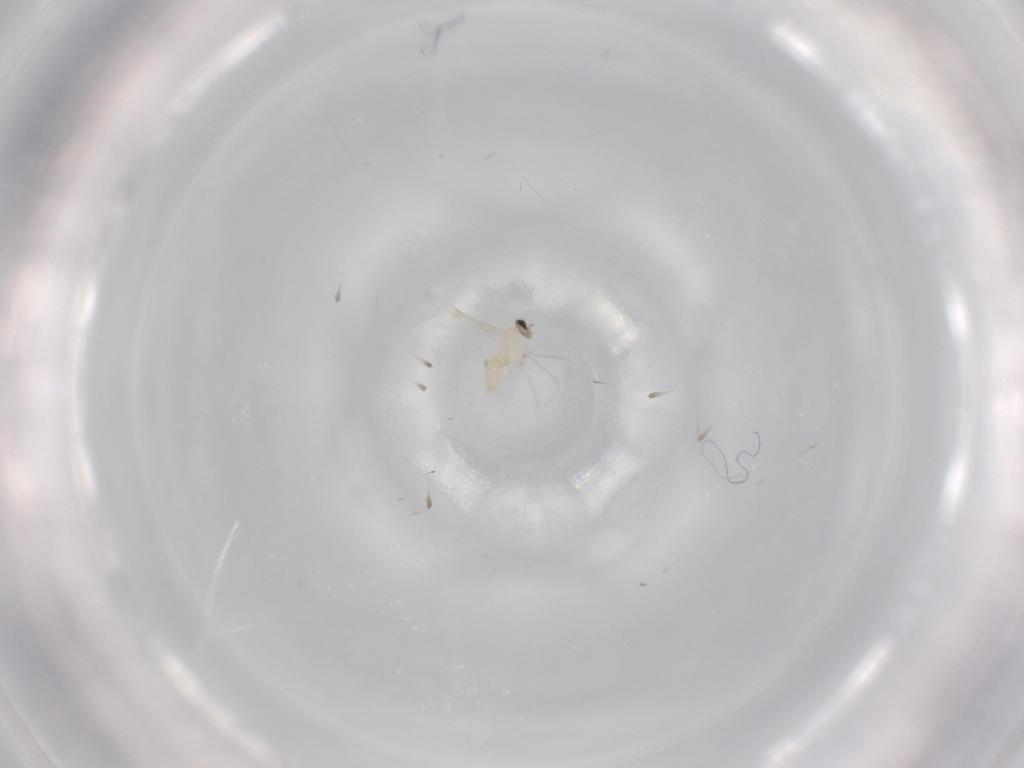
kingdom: Animalia
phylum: Arthropoda
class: Insecta
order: Diptera
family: Cecidomyiidae
